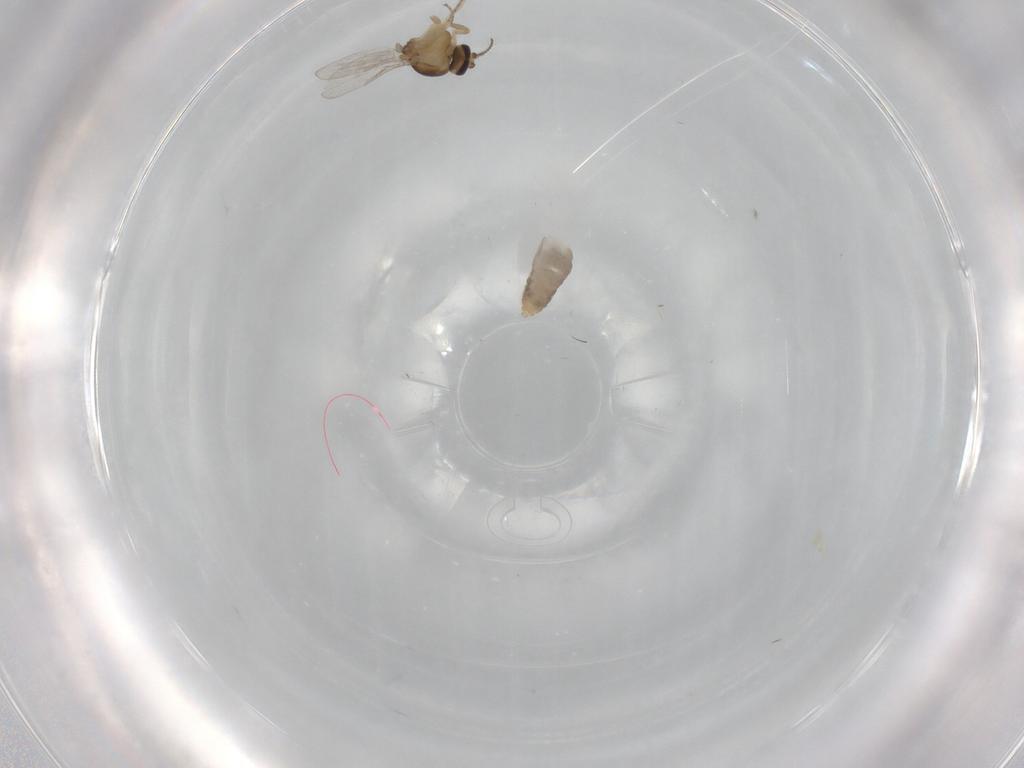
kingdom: Animalia
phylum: Arthropoda
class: Insecta
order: Diptera
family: Ceratopogonidae
